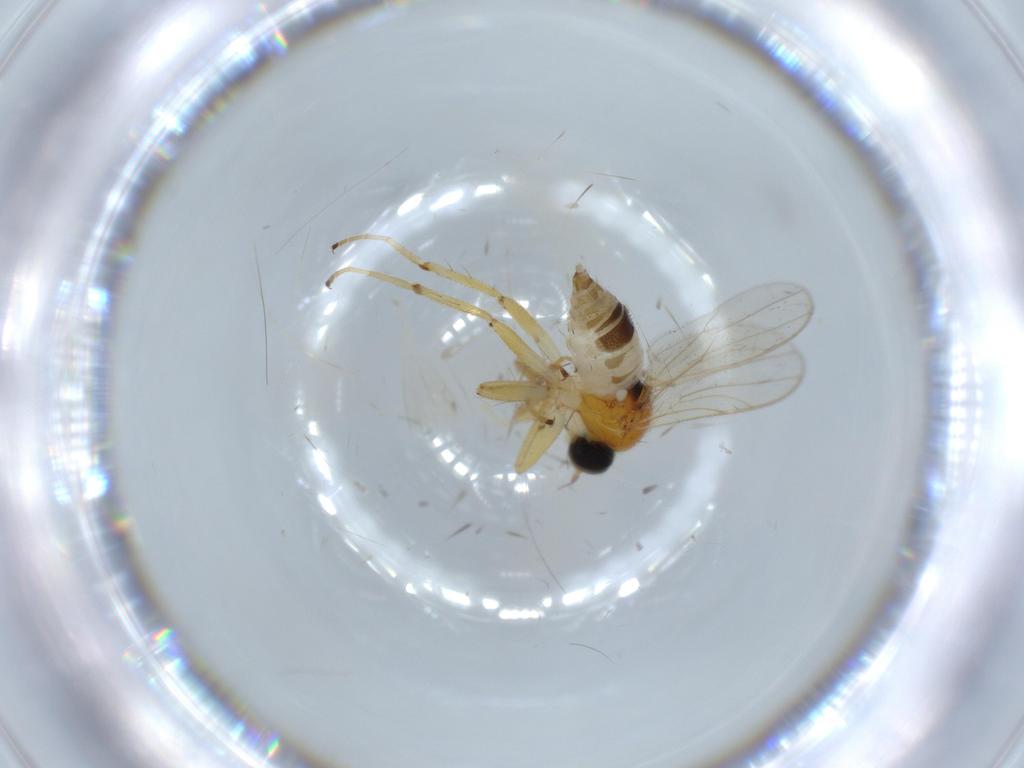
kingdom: Animalia
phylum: Arthropoda
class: Insecta
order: Diptera
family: Hybotidae
